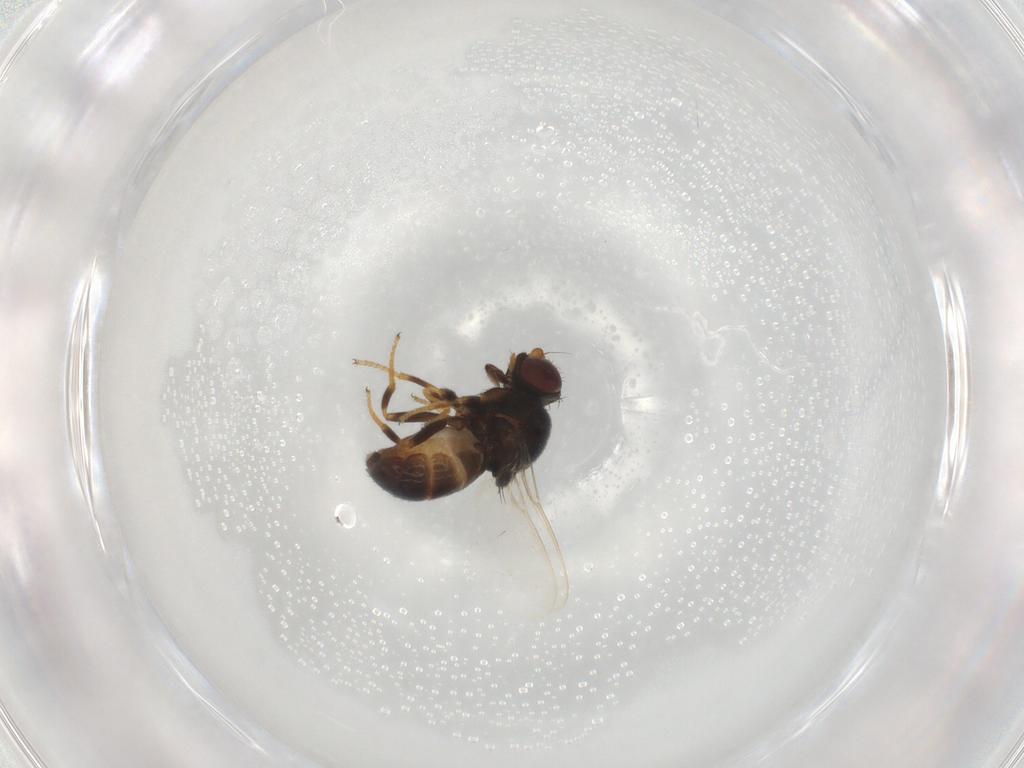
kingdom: Animalia
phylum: Arthropoda
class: Insecta
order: Diptera
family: Chloropidae
